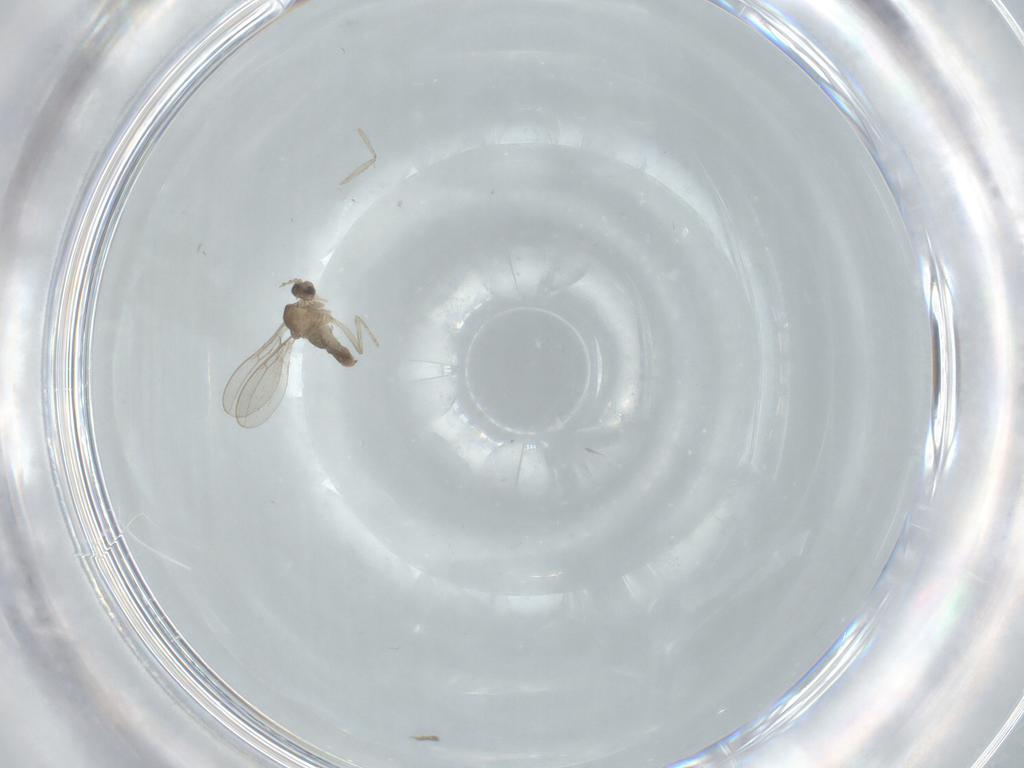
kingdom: Animalia
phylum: Arthropoda
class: Insecta
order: Diptera
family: Cecidomyiidae
